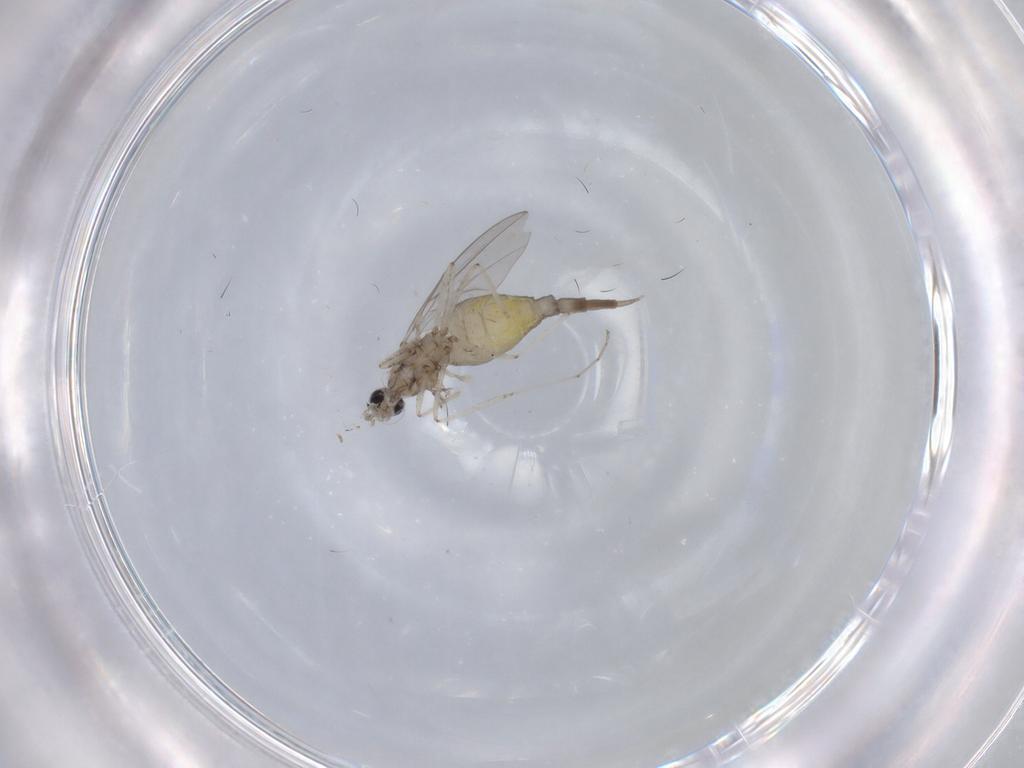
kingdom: Animalia
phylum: Arthropoda
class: Insecta
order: Diptera
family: Cecidomyiidae
